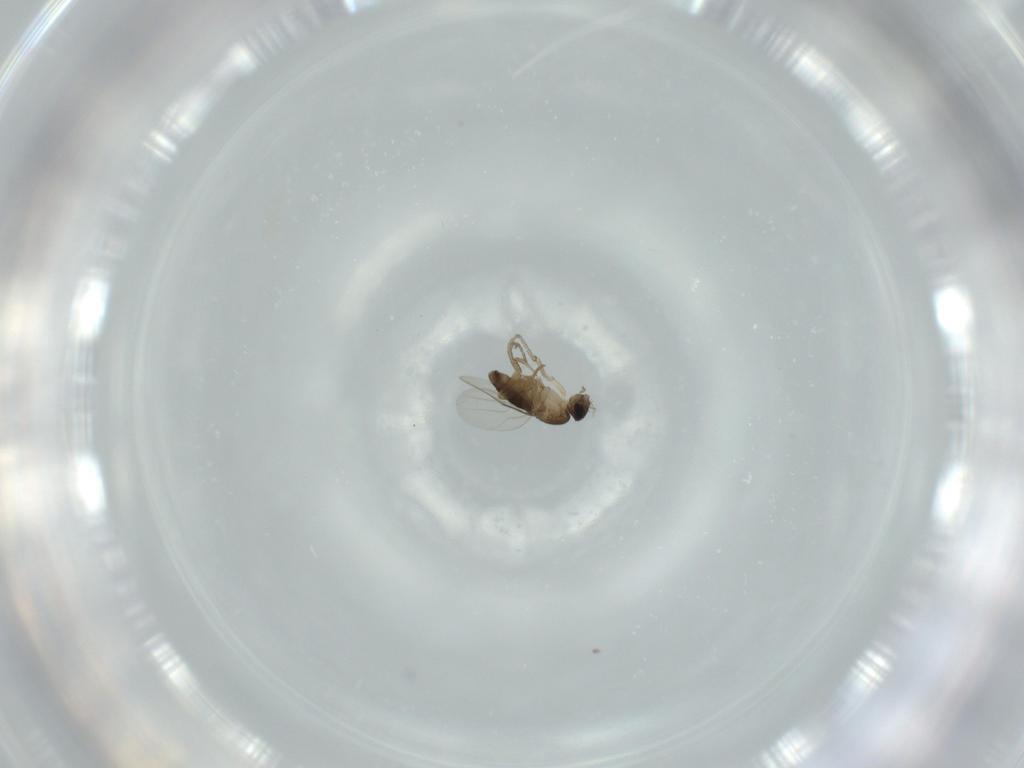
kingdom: Animalia
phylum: Arthropoda
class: Insecta
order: Diptera
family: Phoridae
